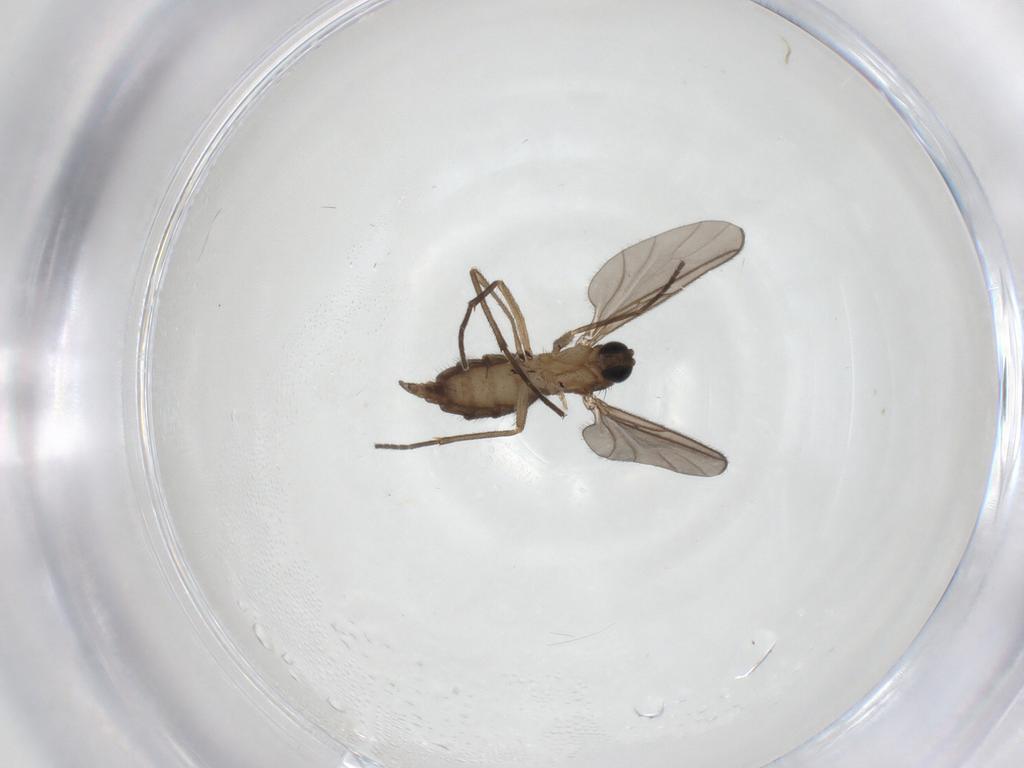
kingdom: Animalia
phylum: Arthropoda
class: Insecta
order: Diptera
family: Sciaridae
